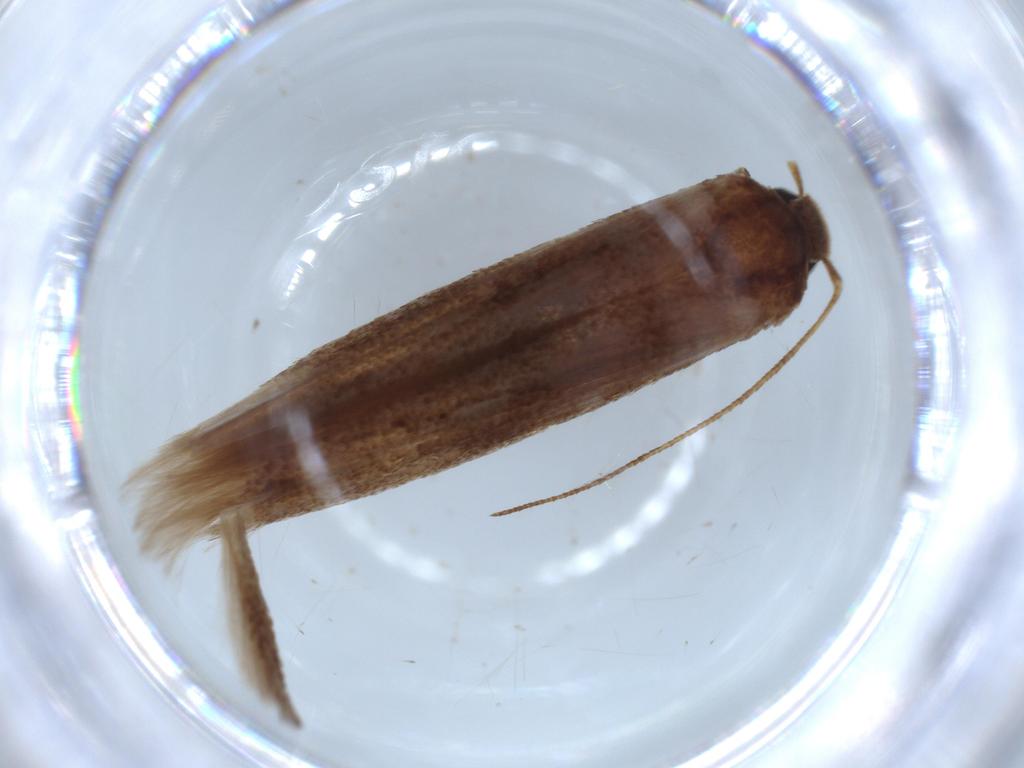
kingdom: Animalia
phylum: Arthropoda
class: Insecta
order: Lepidoptera
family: Stathmopodidae
